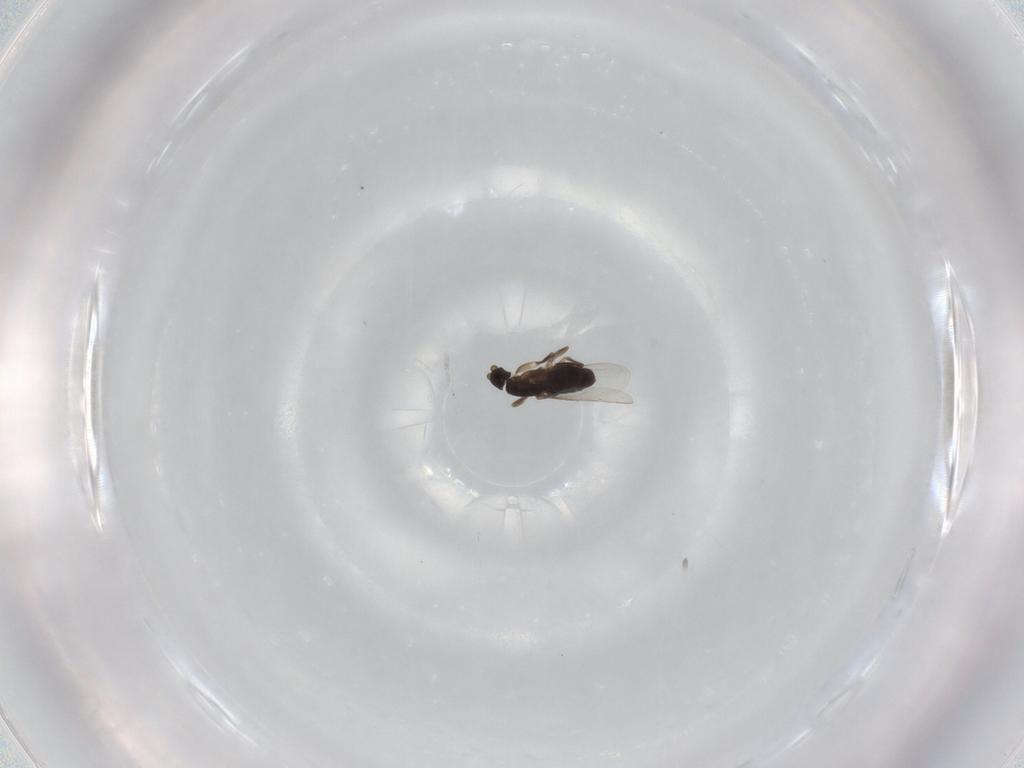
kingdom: Animalia
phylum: Arthropoda
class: Insecta
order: Diptera
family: Phoridae
